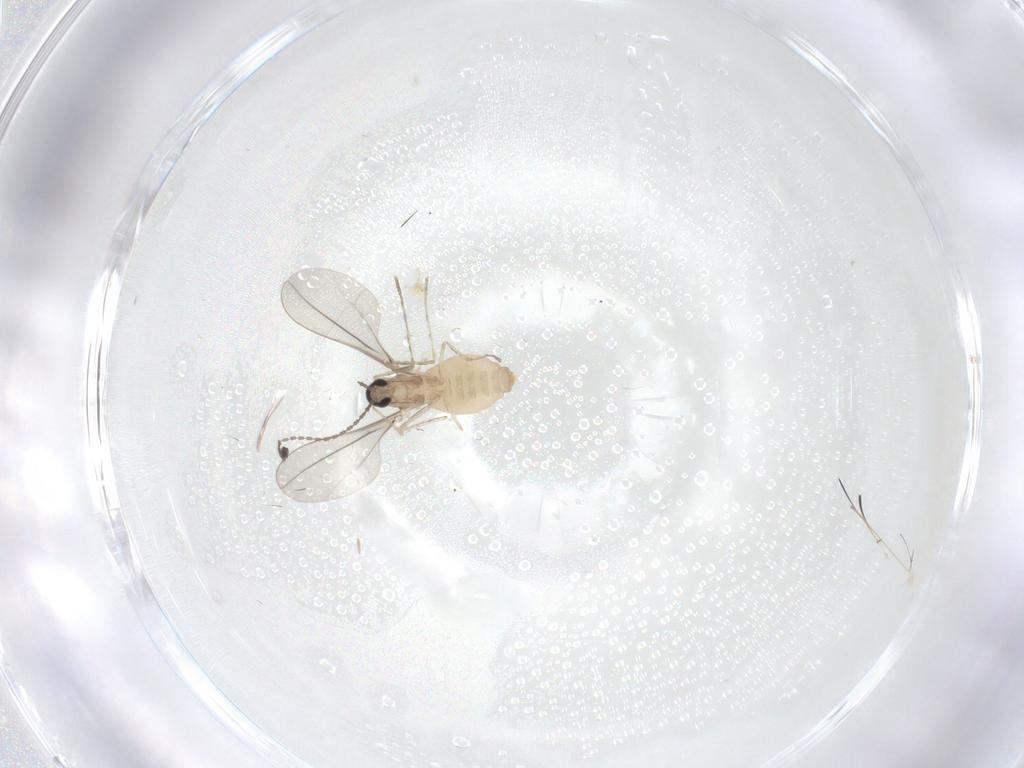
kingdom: Animalia
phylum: Arthropoda
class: Insecta
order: Diptera
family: Cecidomyiidae
